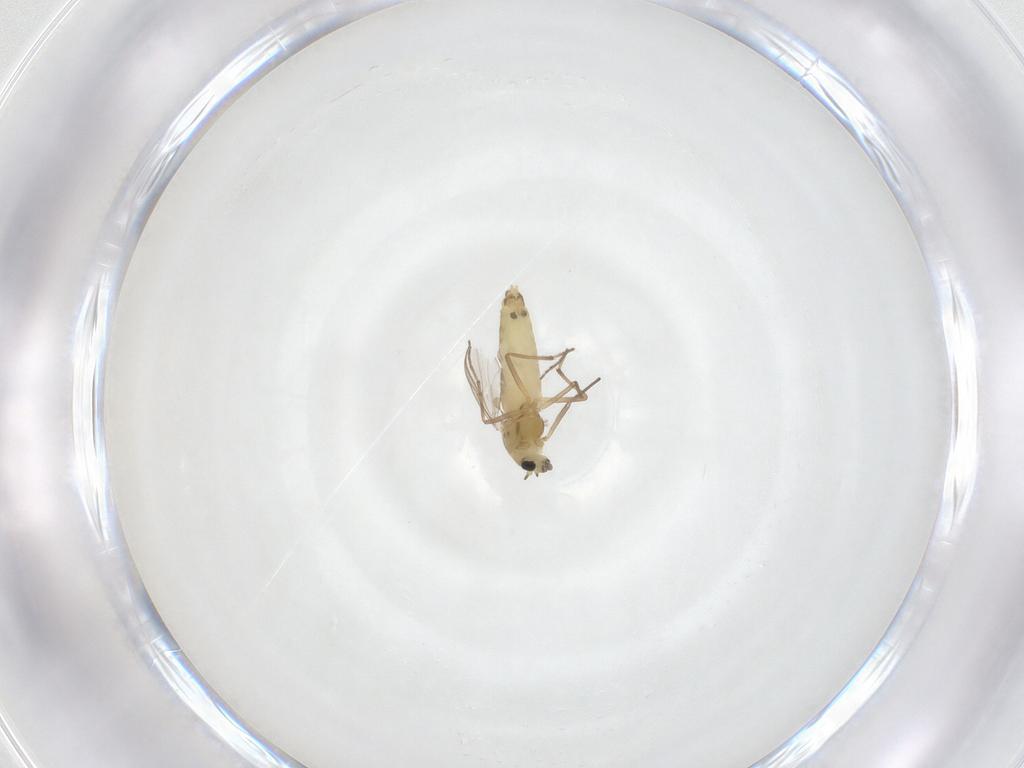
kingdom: Animalia
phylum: Arthropoda
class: Insecta
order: Diptera
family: Chironomidae
